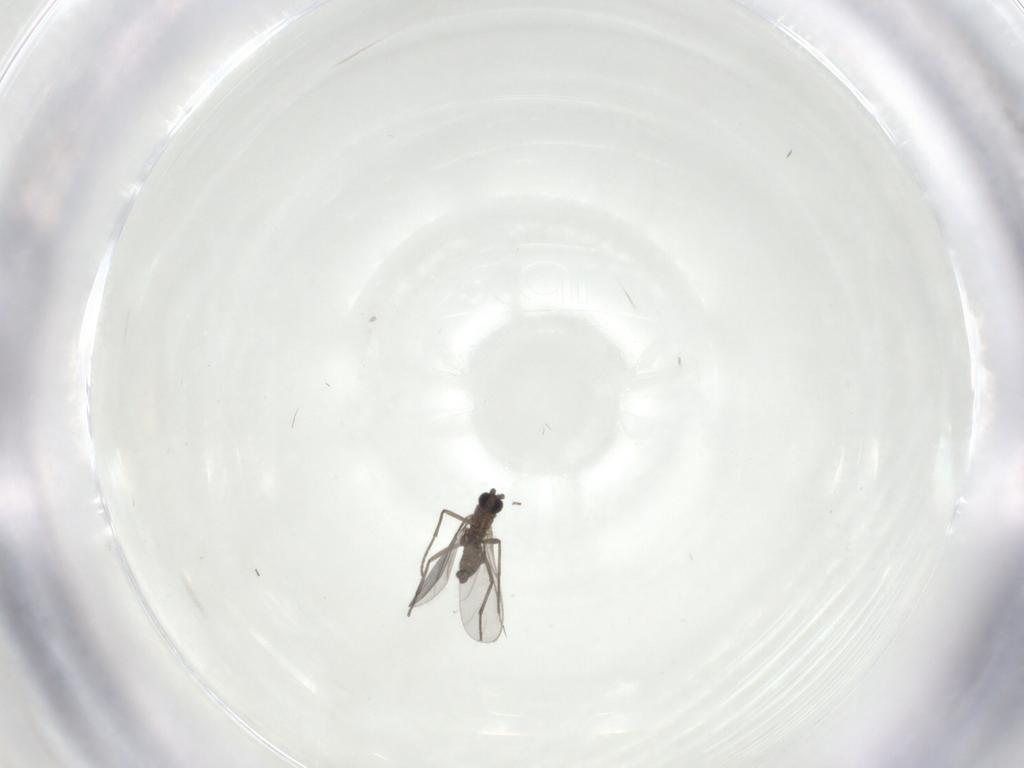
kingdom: Animalia
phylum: Arthropoda
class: Insecta
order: Diptera
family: Sciaridae
